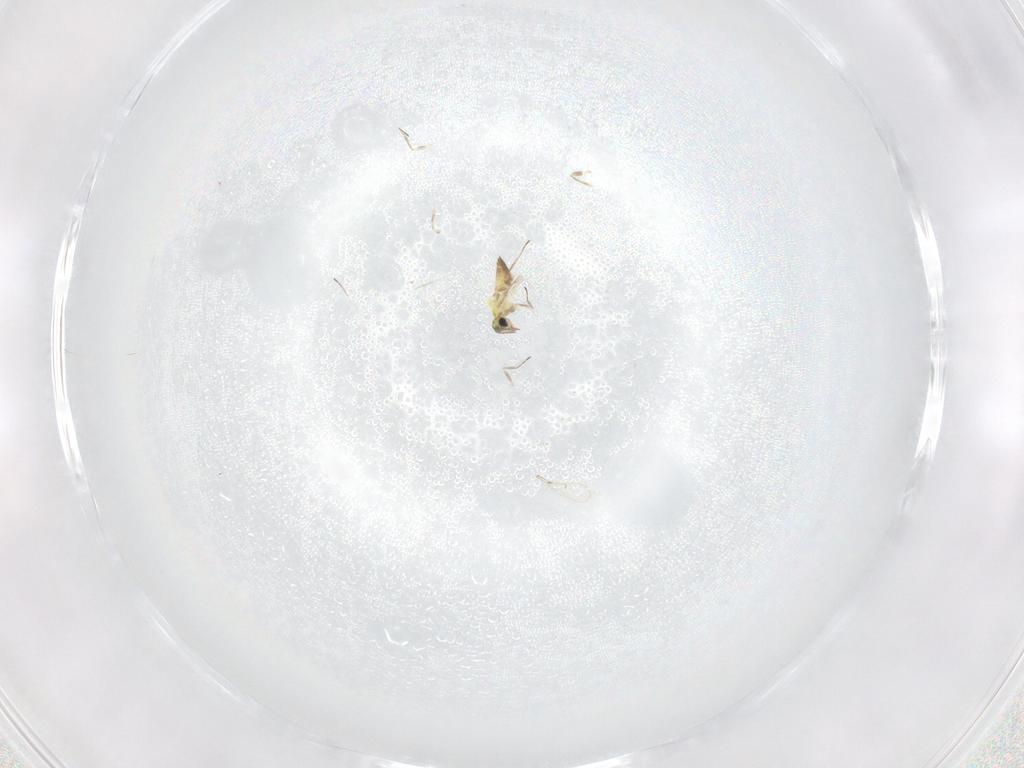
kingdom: Animalia
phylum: Arthropoda
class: Insecta
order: Hymenoptera
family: Trichogrammatidae
